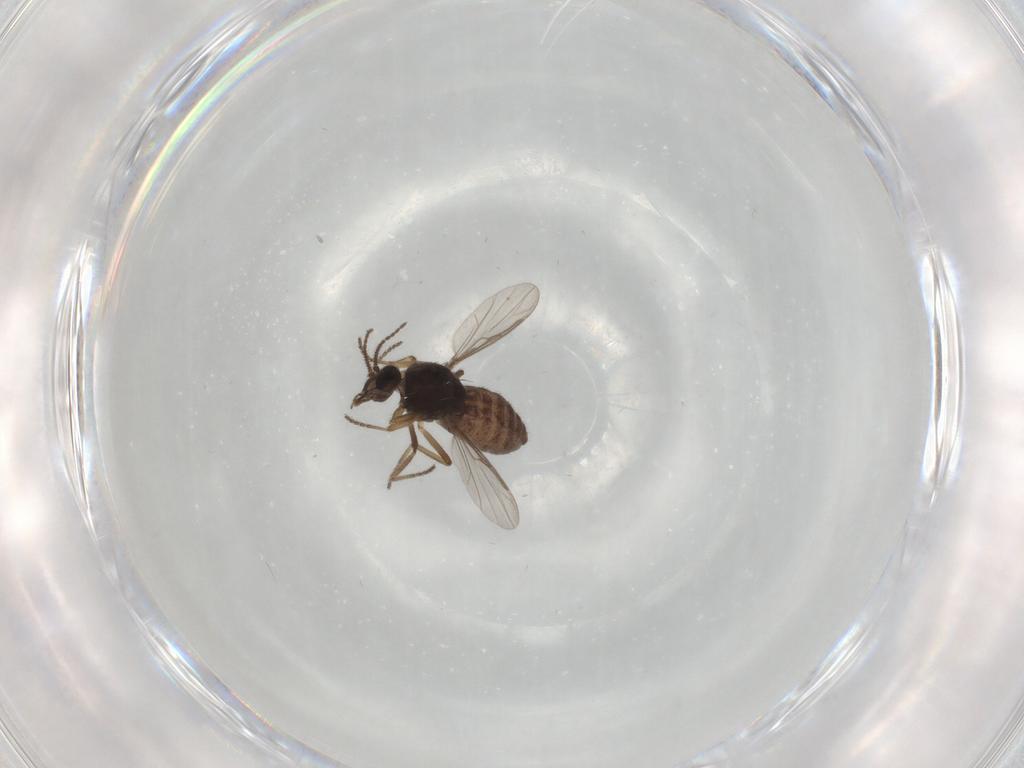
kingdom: Animalia
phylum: Arthropoda
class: Insecta
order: Diptera
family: Ceratopogonidae
